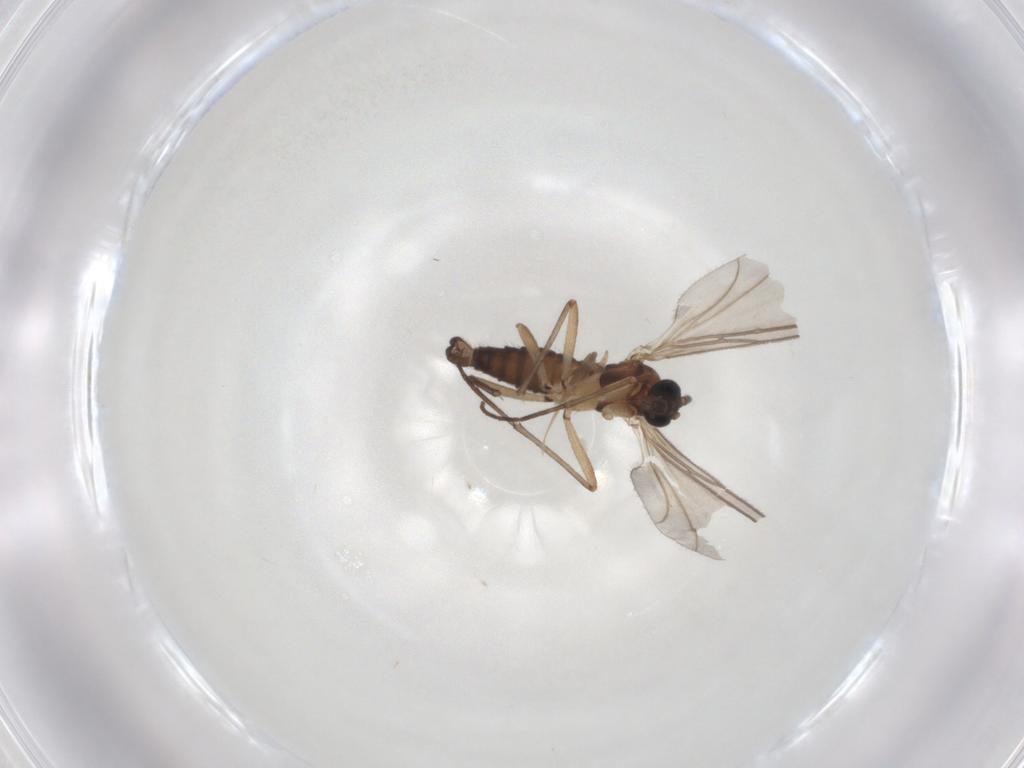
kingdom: Animalia
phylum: Arthropoda
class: Insecta
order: Diptera
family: Sciaridae
